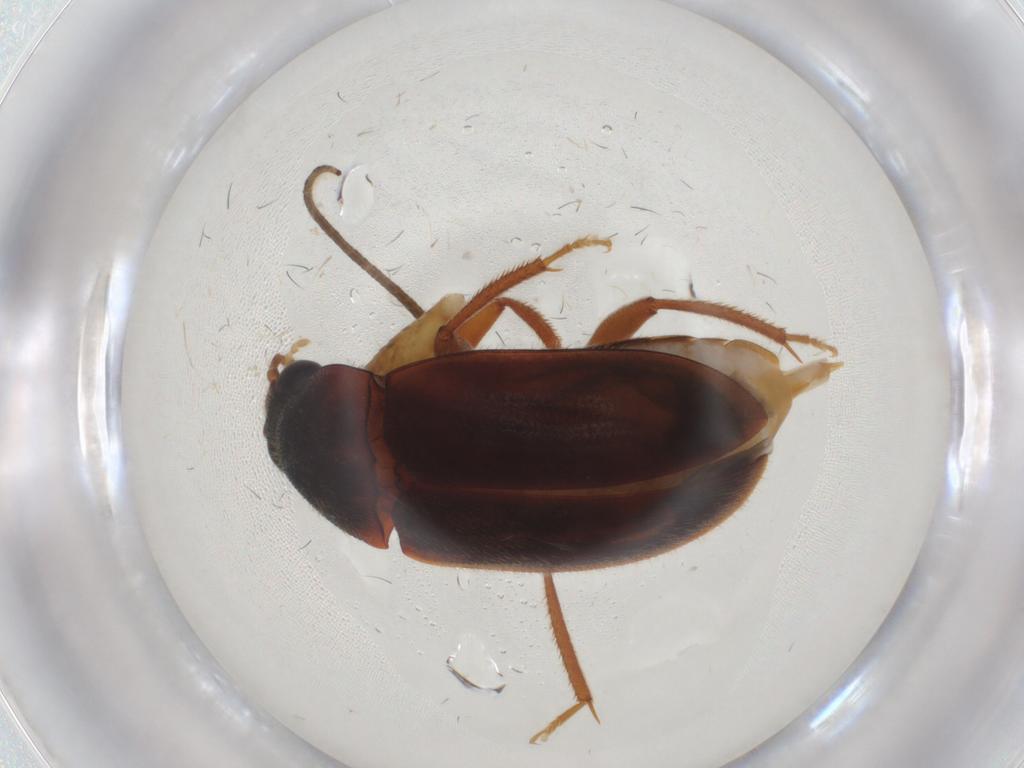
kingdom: Animalia
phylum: Arthropoda
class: Insecta
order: Coleoptera
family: Ptilodactylidae
